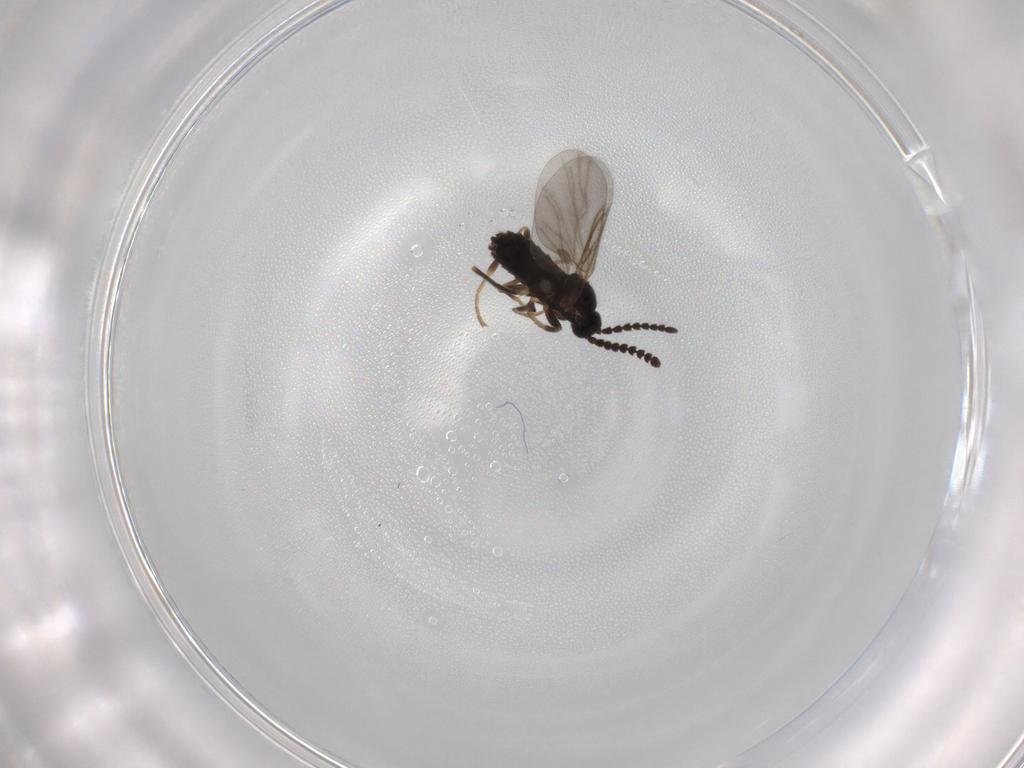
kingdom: Animalia
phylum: Arthropoda
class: Insecta
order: Diptera
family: Scatopsidae
